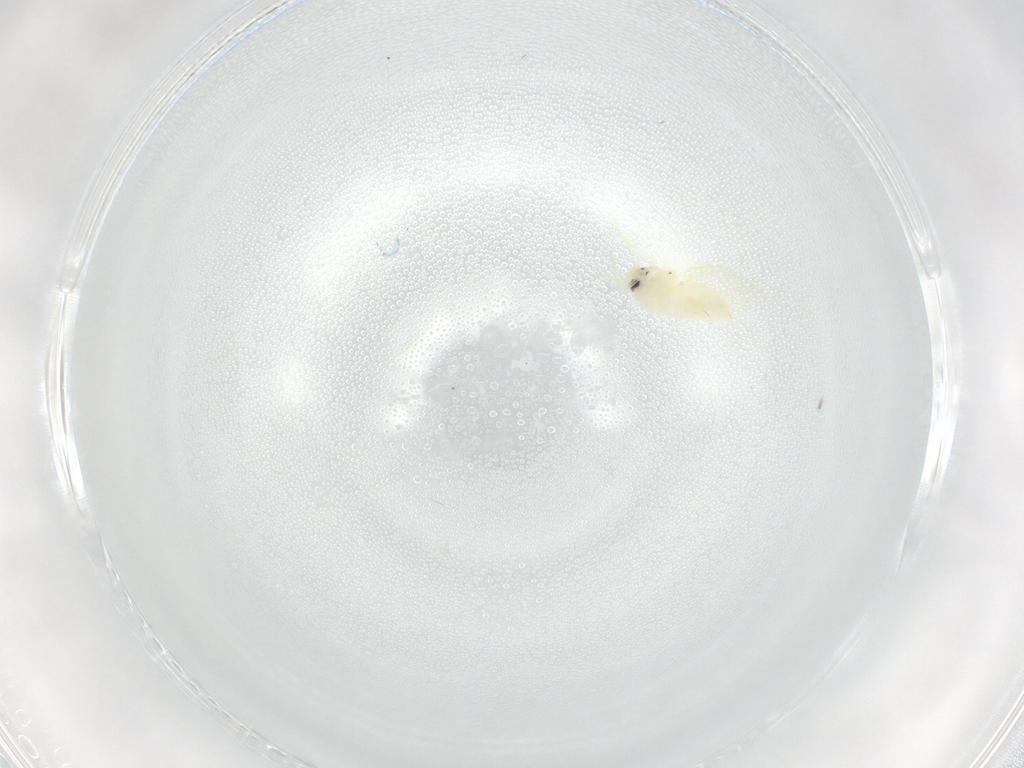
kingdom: Animalia
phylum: Arthropoda
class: Insecta
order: Hemiptera
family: Aleyrodidae
